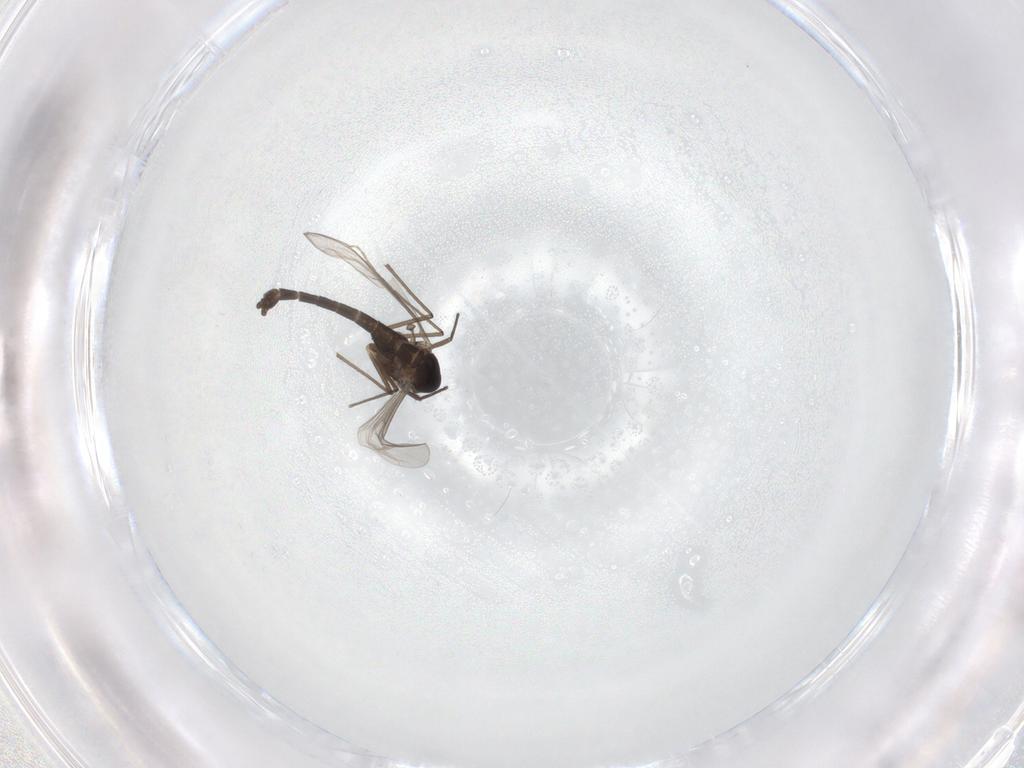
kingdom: Animalia
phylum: Arthropoda
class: Insecta
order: Diptera
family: Chironomidae
